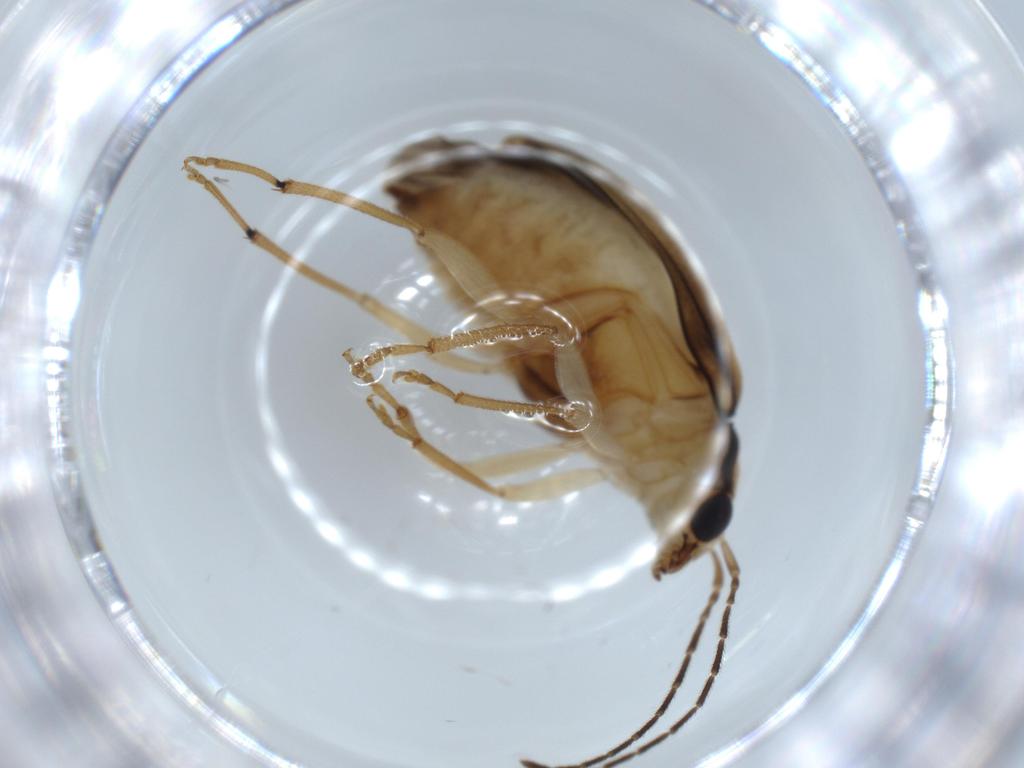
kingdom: Animalia
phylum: Arthropoda
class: Insecta
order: Coleoptera
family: Chrysomelidae
